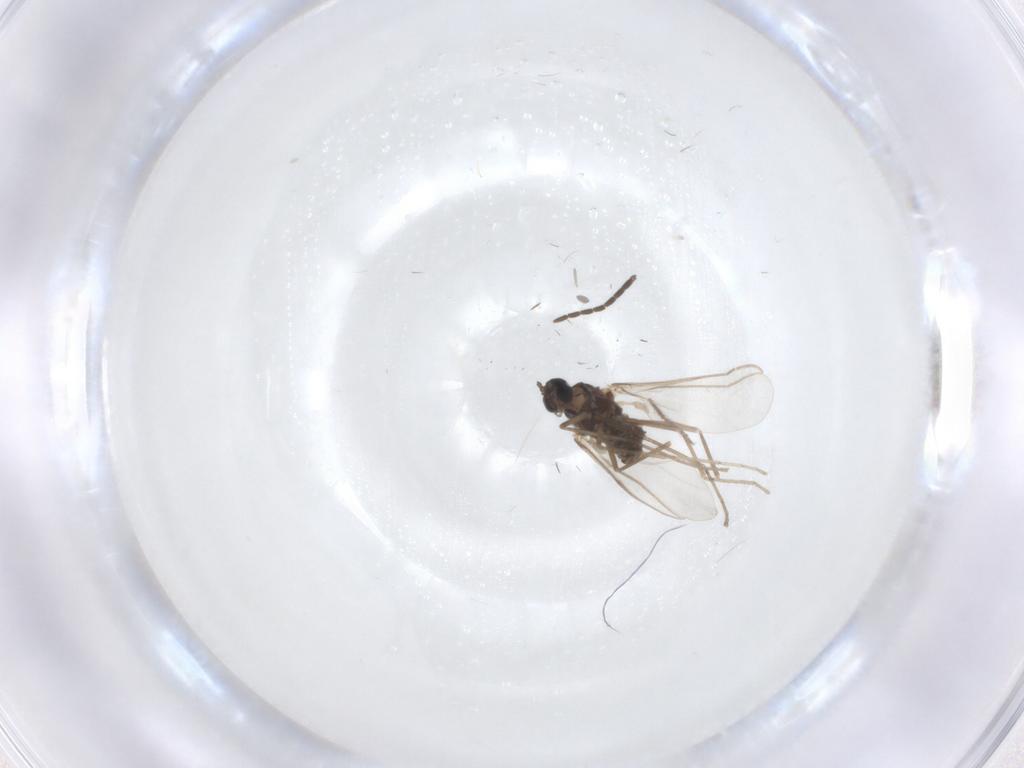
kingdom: Animalia
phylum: Arthropoda
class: Insecta
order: Diptera
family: Cecidomyiidae
